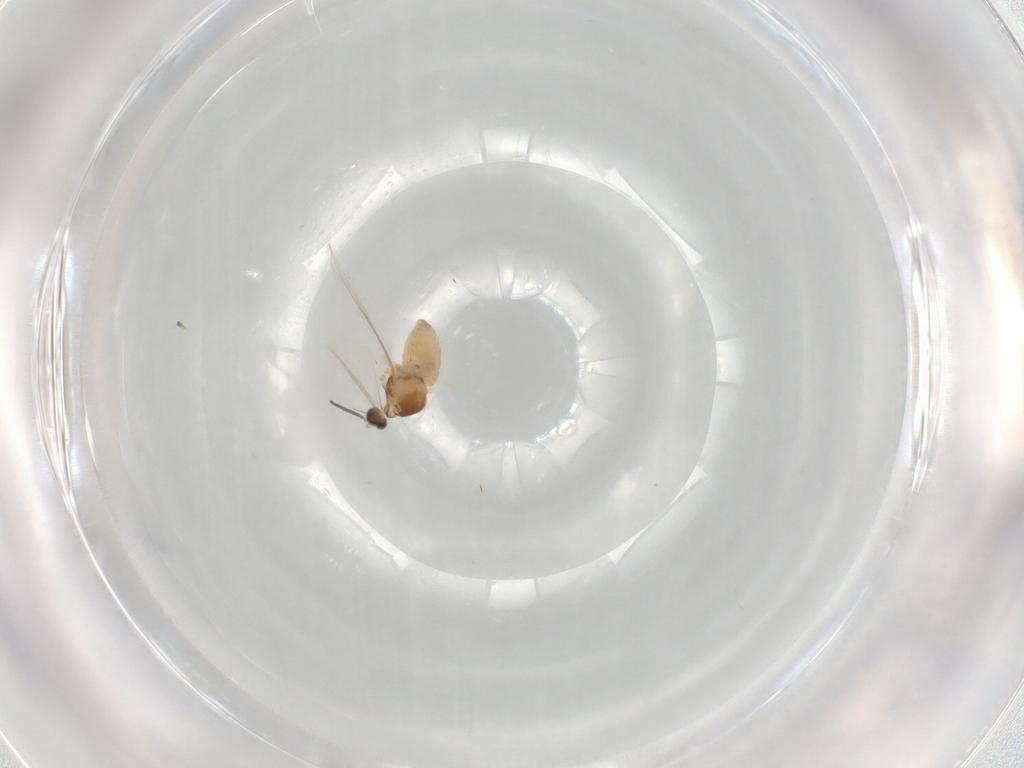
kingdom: Animalia
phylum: Arthropoda
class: Insecta
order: Diptera
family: Cecidomyiidae
